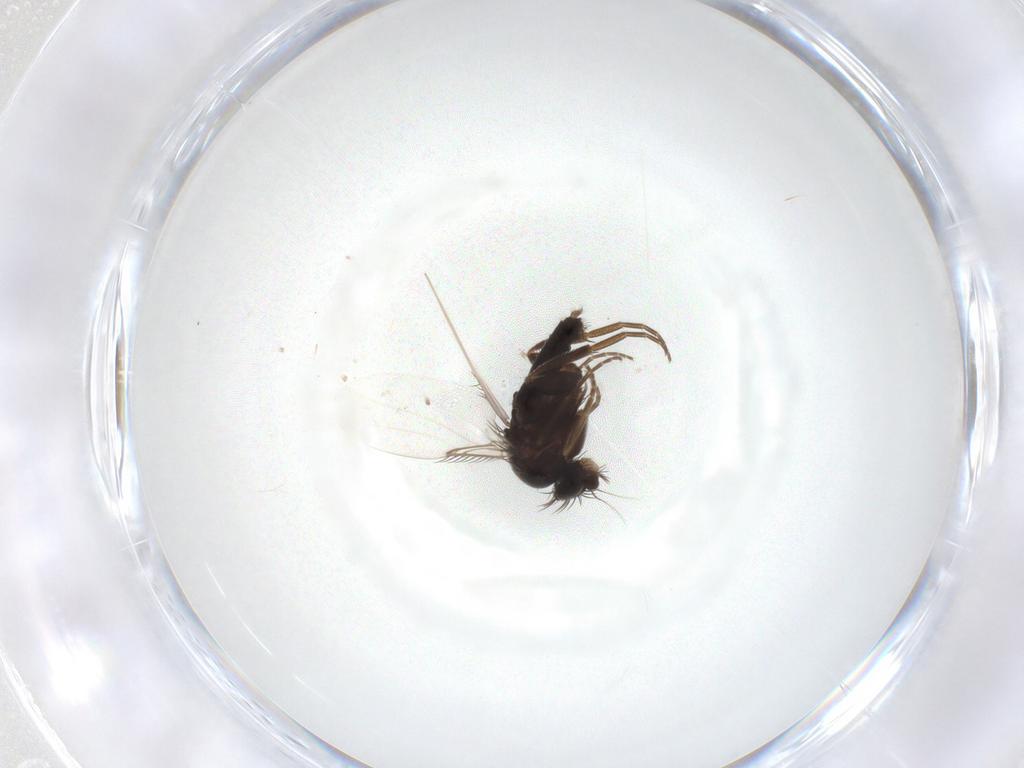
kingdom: Animalia
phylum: Arthropoda
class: Insecta
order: Diptera
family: Phoridae
